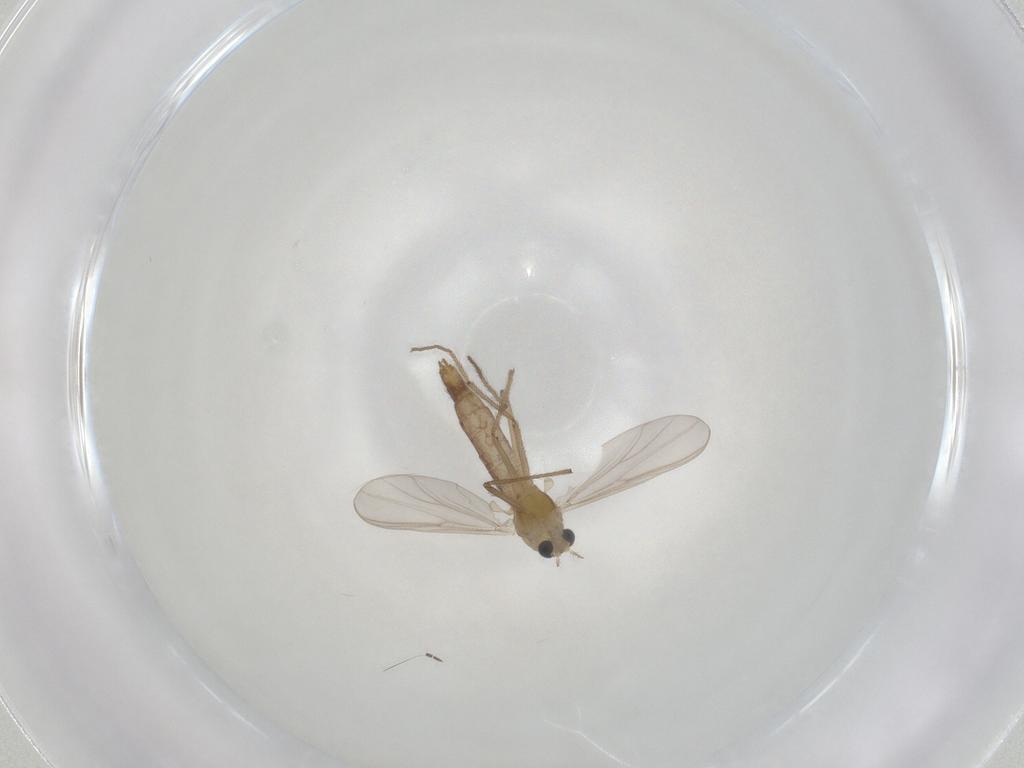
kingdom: Animalia
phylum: Arthropoda
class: Insecta
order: Diptera
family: Chironomidae
